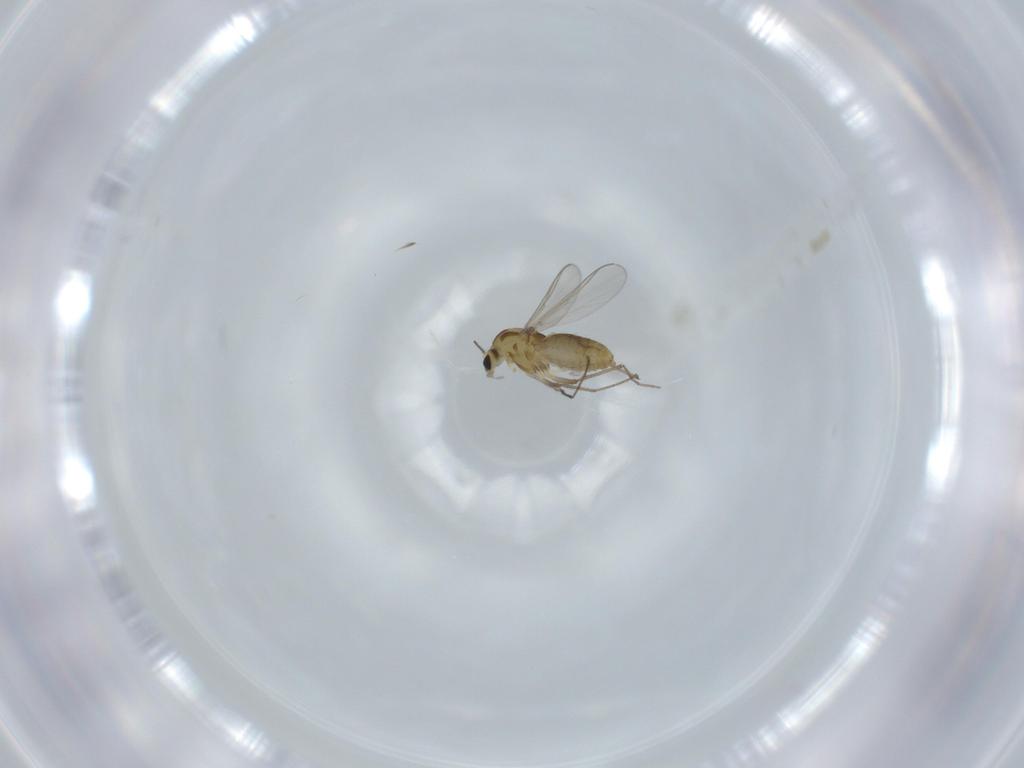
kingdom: Animalia
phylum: Arthropoda
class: Insecta
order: Diptera
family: Chironomidae
